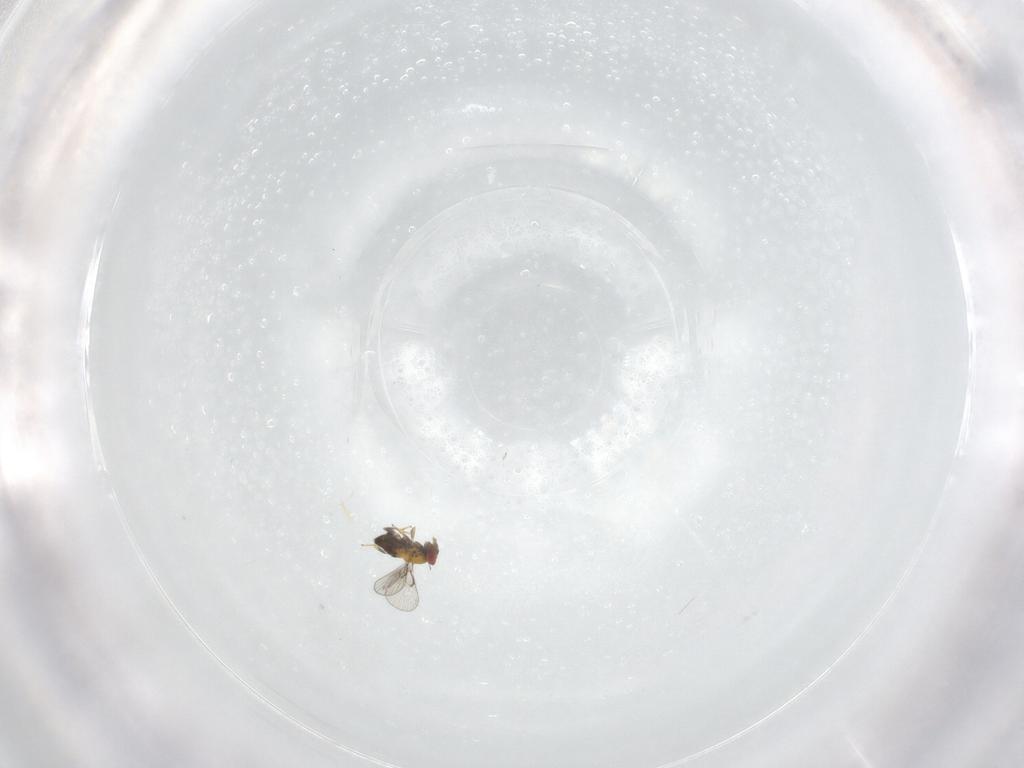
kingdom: Animalia
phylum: Arthropoda
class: Insecta
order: Hymenoptera
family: Trichogrammatidae
